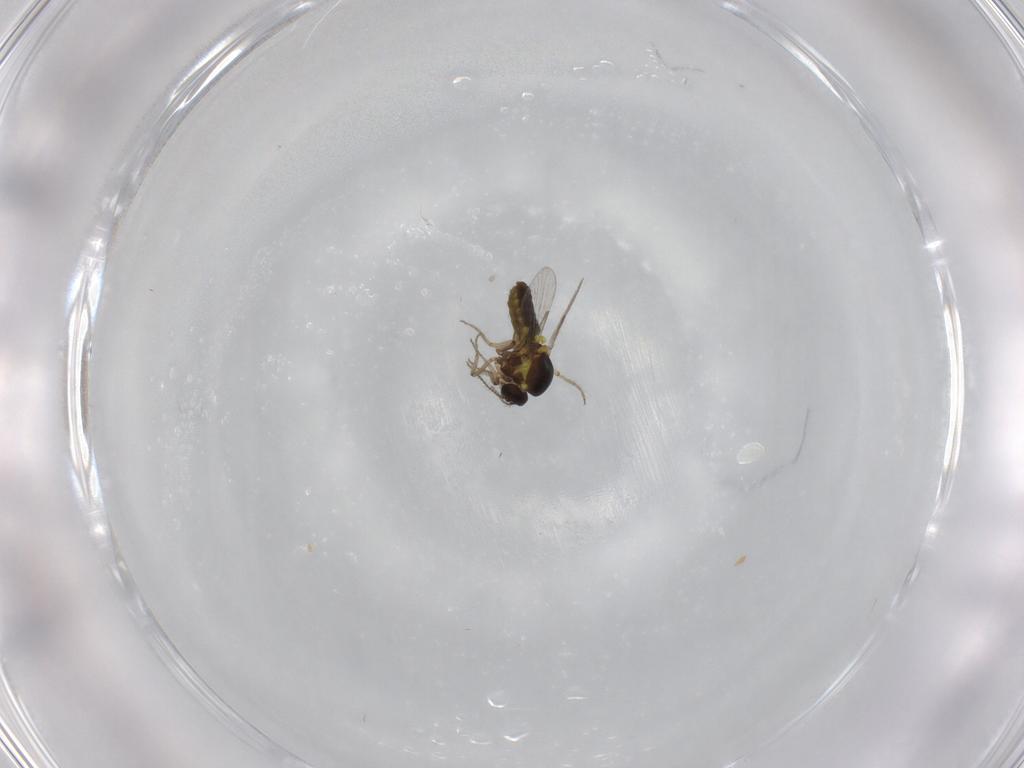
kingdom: Animalia
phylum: Arthropoda
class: Insecta
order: Diptera
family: Ceratopogonidae
